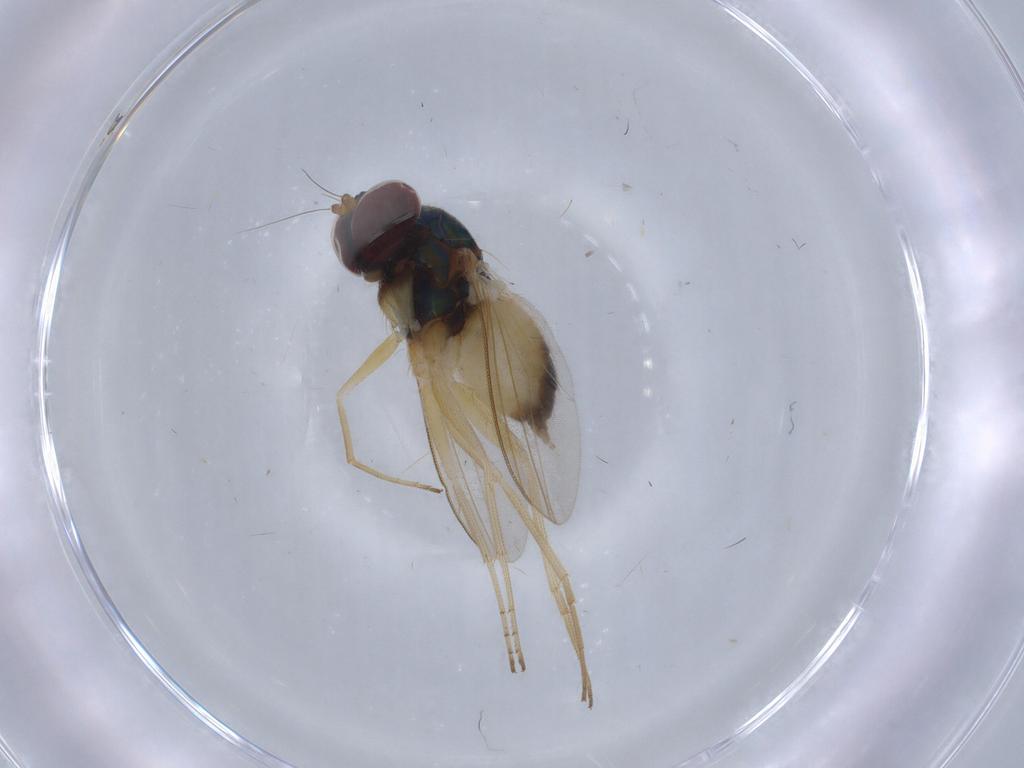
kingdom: Animalia
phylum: Arthropoda
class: Insecta
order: Diptera
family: Dolichopodidae
